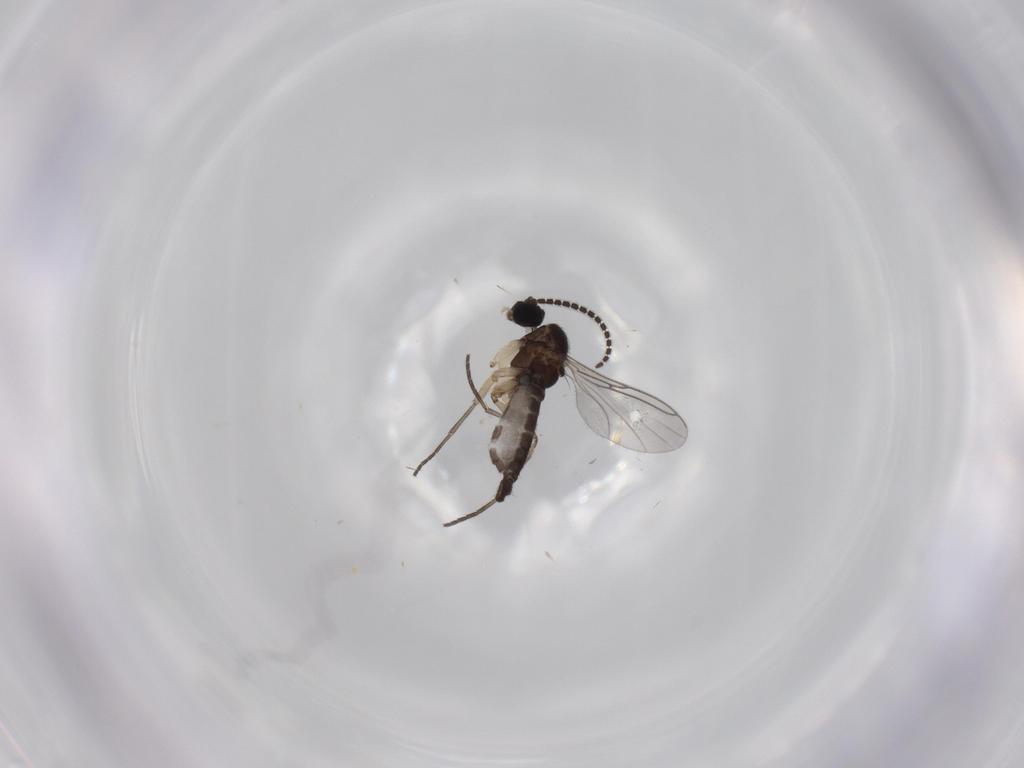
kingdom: Animalia
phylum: Arthropoda
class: Insecta
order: Diptera
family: Sciaridae
